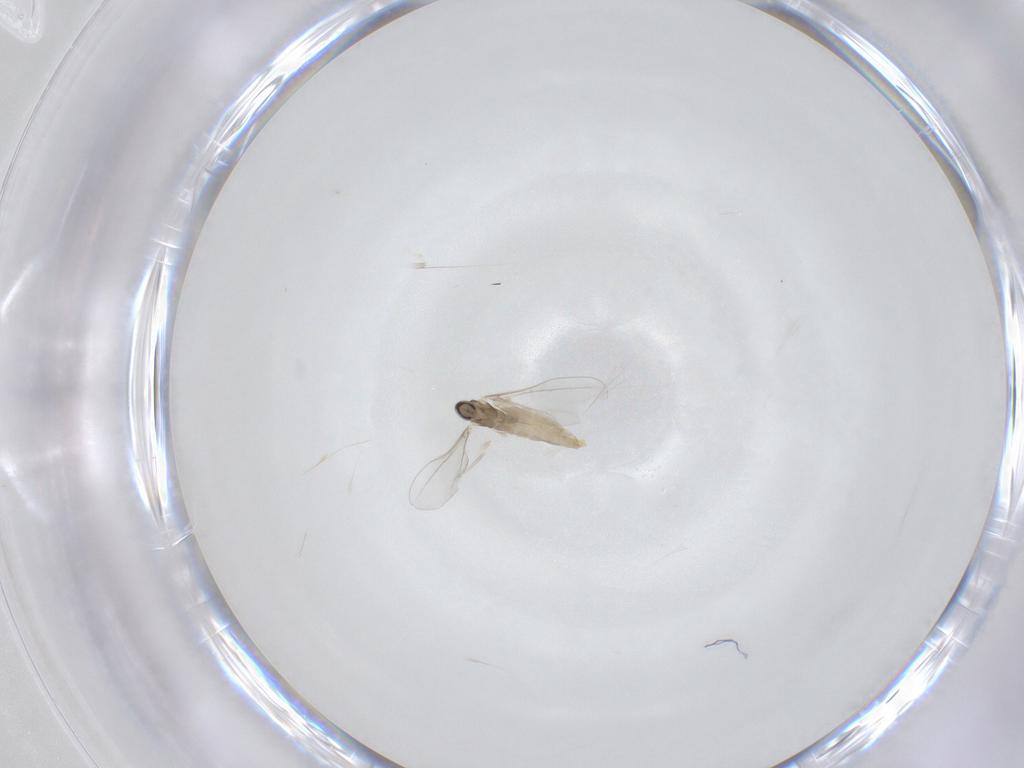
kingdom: Animalia
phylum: Arthropoda
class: Insecta
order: Diptera
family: Cecidomyiidae
